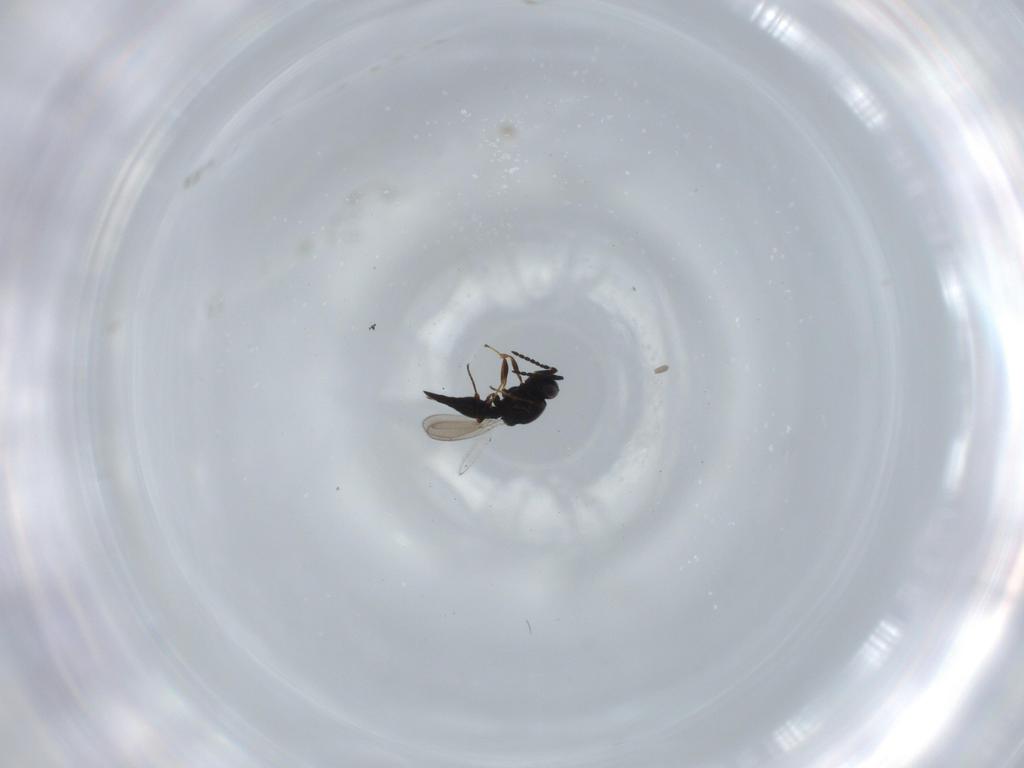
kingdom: Animalia
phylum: Arthropoda
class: Insecta
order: Hymenoptera
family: Platygastridae
